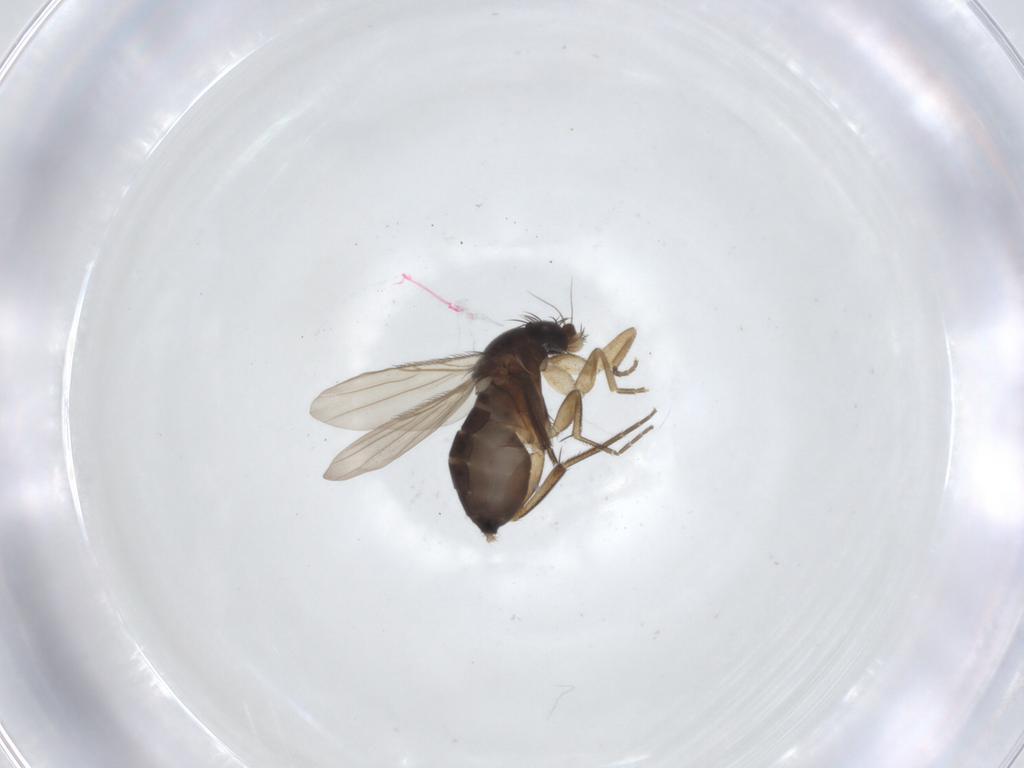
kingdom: Animalia
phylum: Arthropoda
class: Insecta
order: Diptera
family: Phoridae
